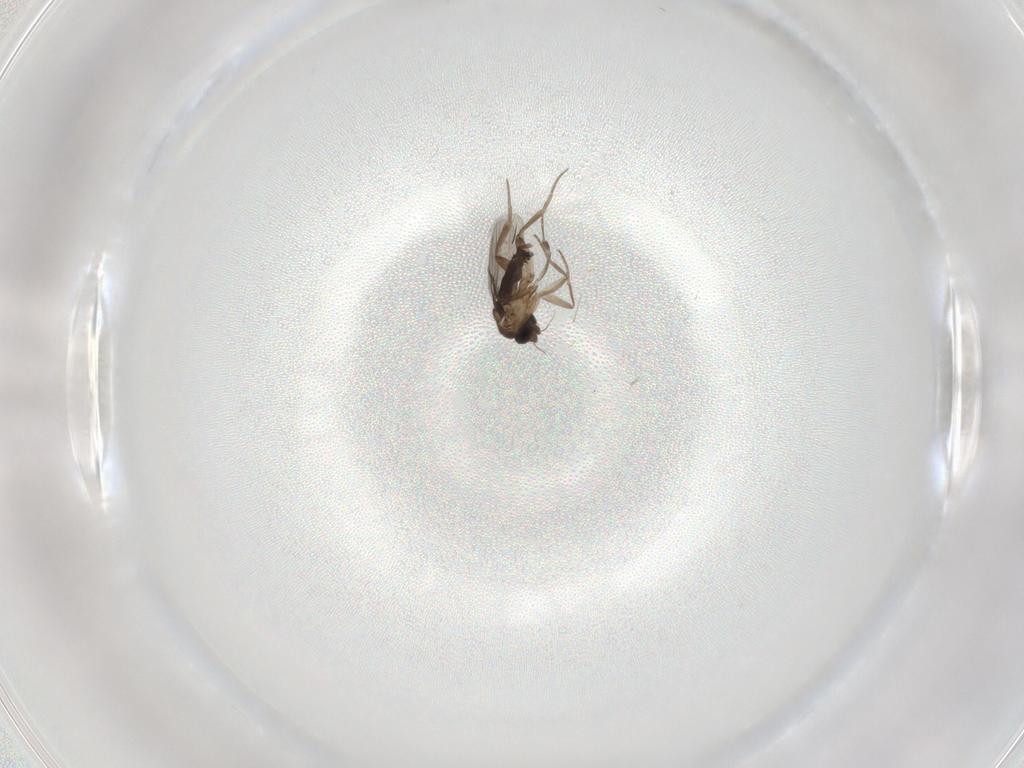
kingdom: Animalia
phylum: Arthropoda
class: Insecta
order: Diptera
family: Cecidomyiidae
